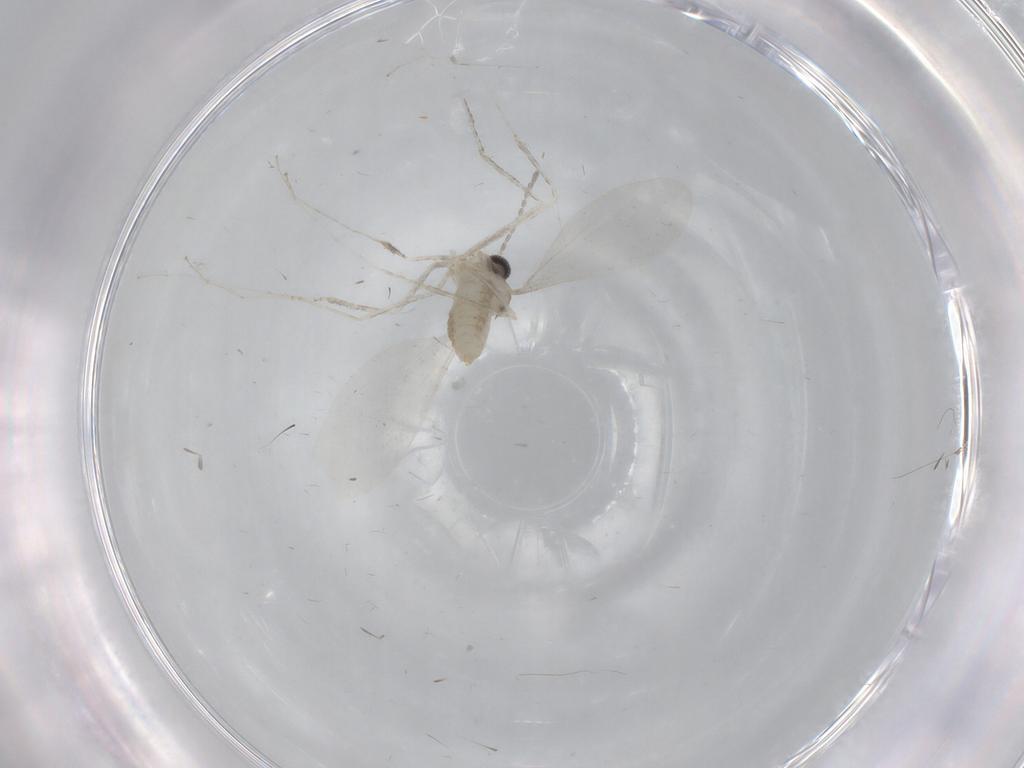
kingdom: Animalia
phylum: Arthropoda
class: Insecta
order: Diptera
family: Cecidomyiidae
